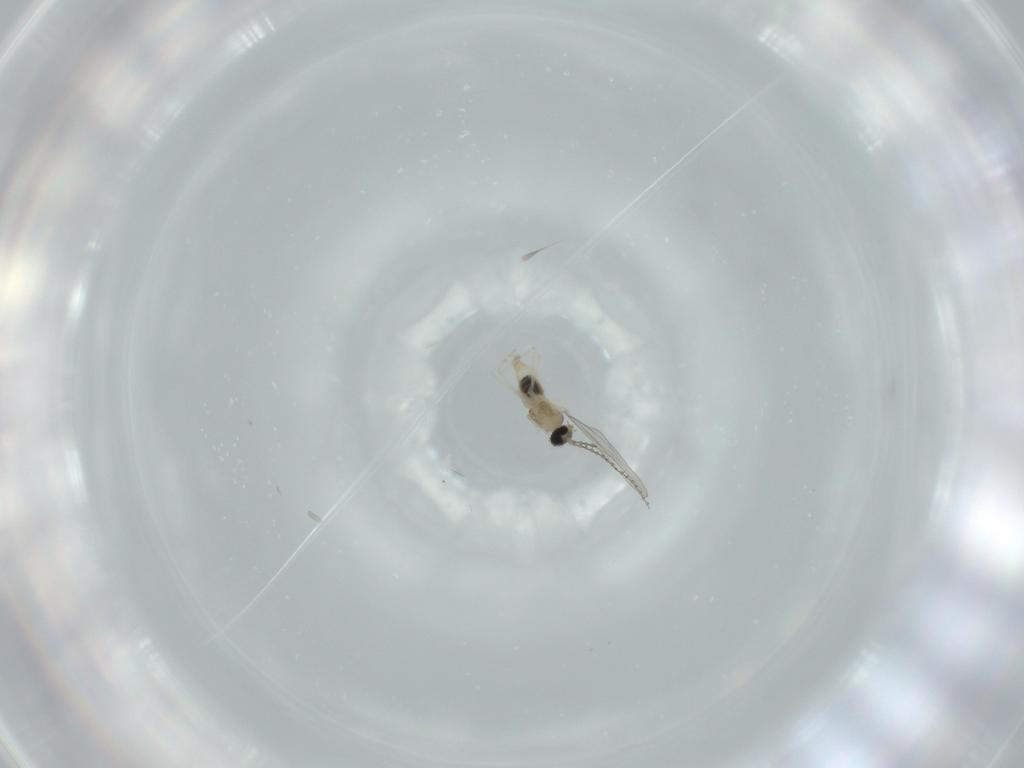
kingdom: Animalia
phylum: Arthropoda
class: Insecta
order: Diptera
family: Cecidomyiidae
